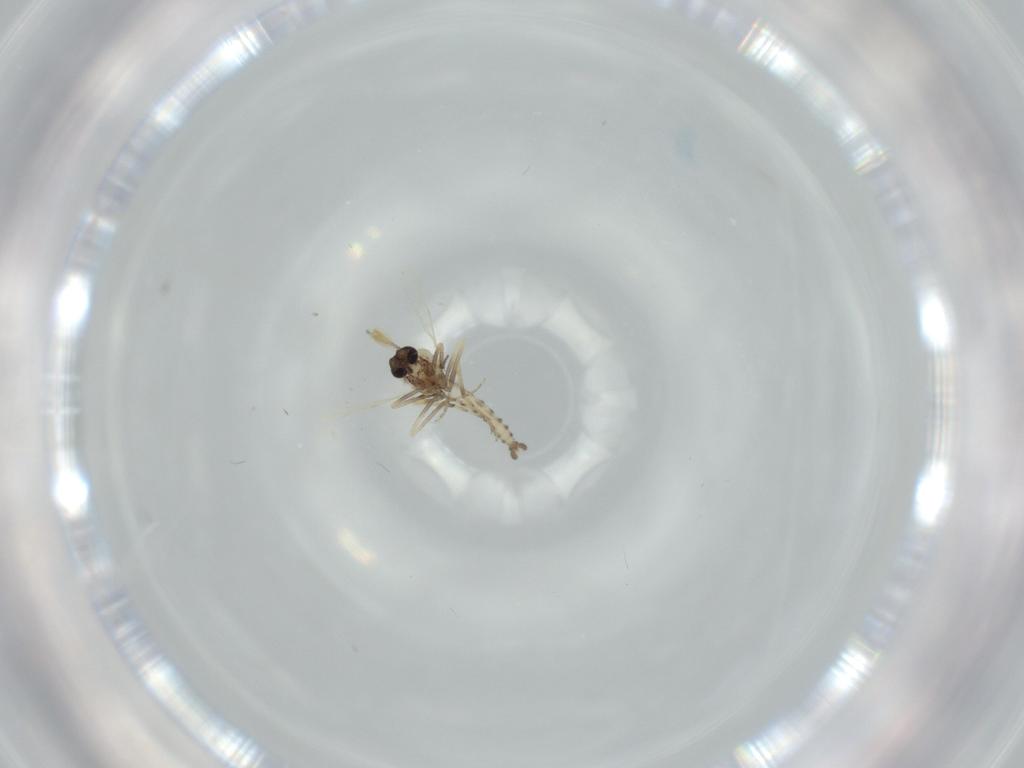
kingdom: Animalia
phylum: Arthropoda
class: Insecta
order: Diptera
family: Ceratopogonidae
